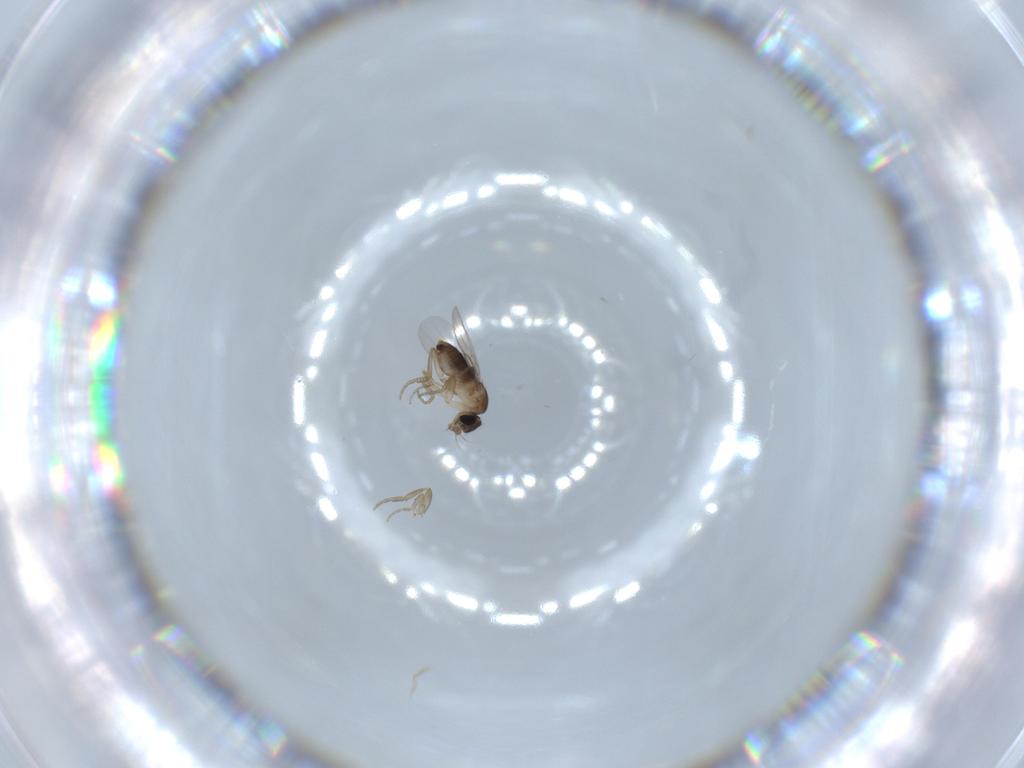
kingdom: Animalia
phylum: Arthropoda
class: Insecta
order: Diptera
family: Phoridae
